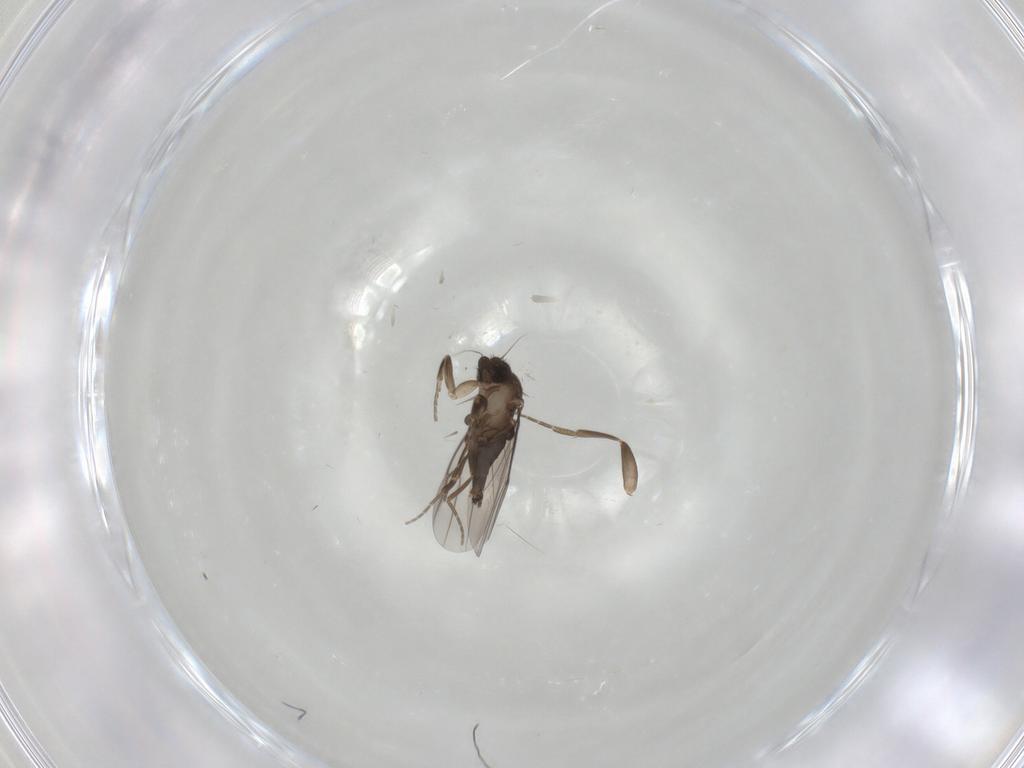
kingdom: Animalia
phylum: Arthropoda
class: Insecta
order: Diptera
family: Phoridae
